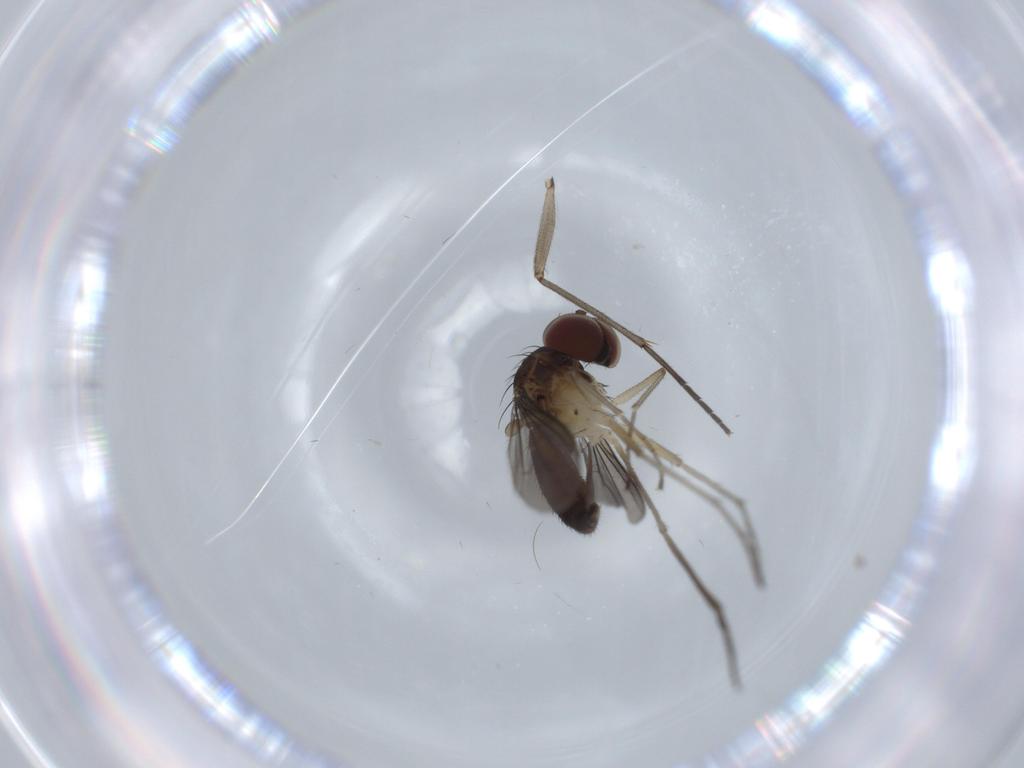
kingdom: Animalia
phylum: Arthropoda
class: Insecta
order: Diptera
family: Dolichopodidae
